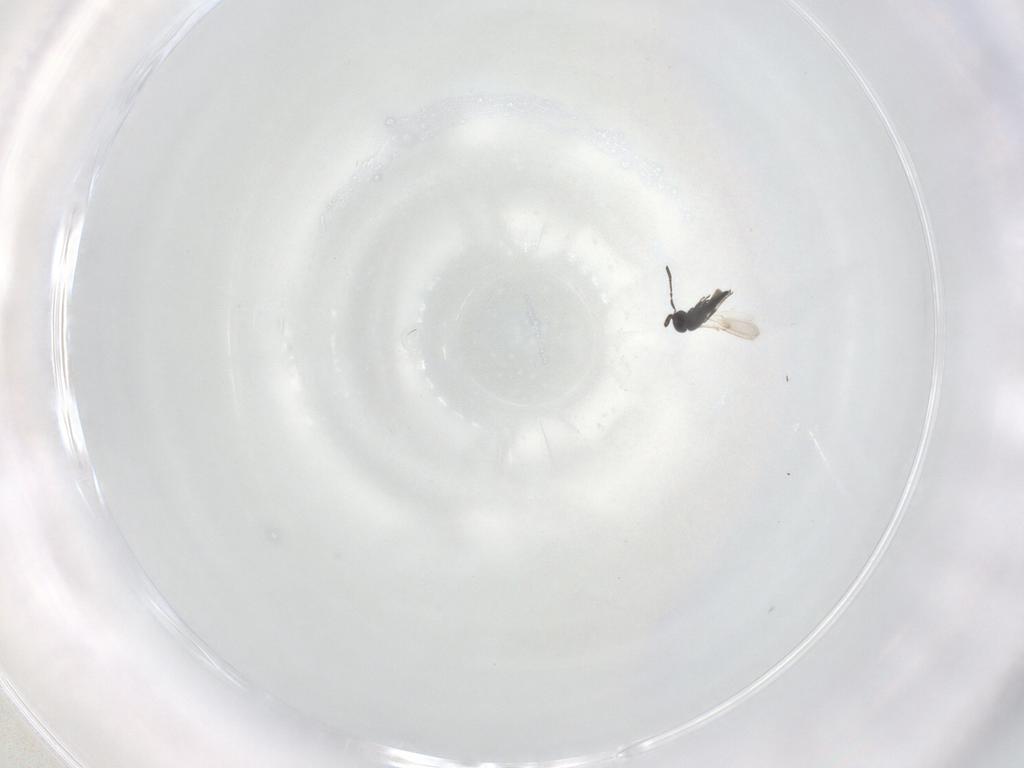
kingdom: Animalia
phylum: Arthropoda
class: Insecta
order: Hymenoptera
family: Scelionidae
